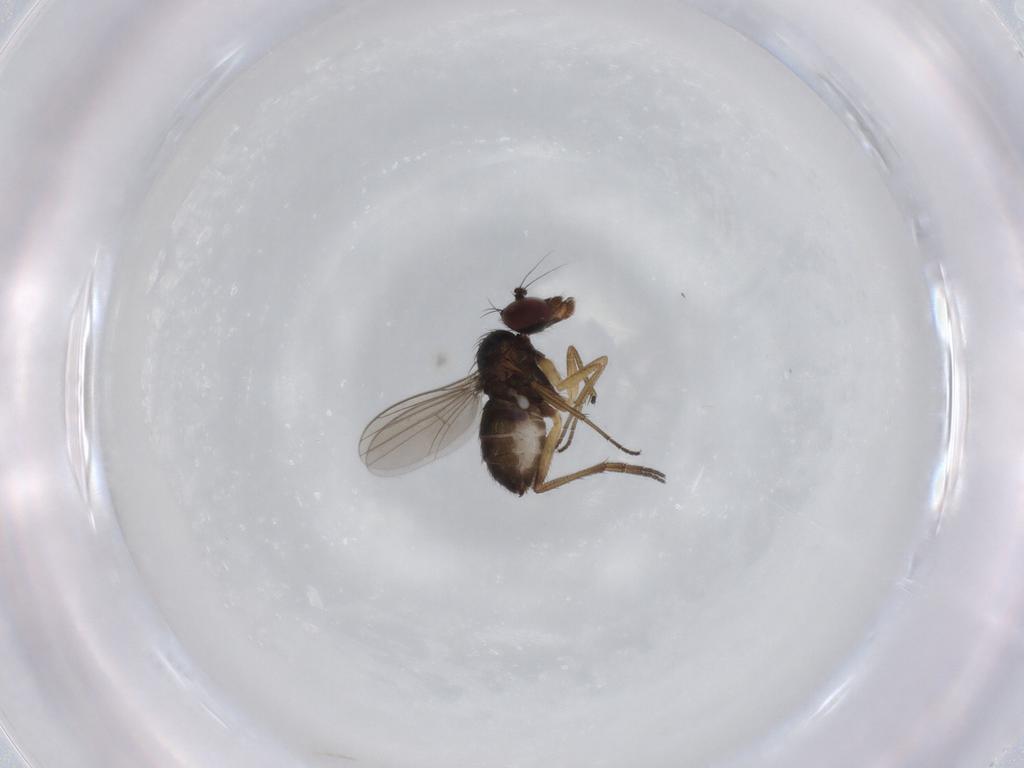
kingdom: Animalia
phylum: Arthropoda
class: Insecta
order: Diptera
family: Dolichopodidae
